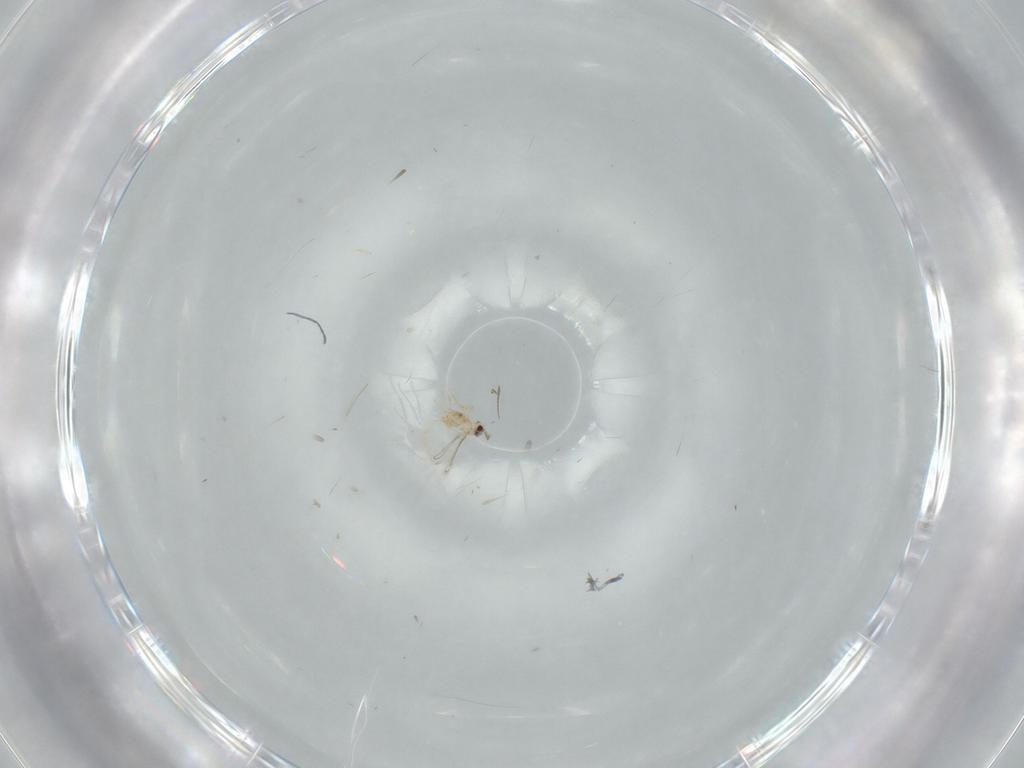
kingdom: Animalia
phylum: Arthropoda
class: Insecta
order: Hymenoptera
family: Mymaridae
